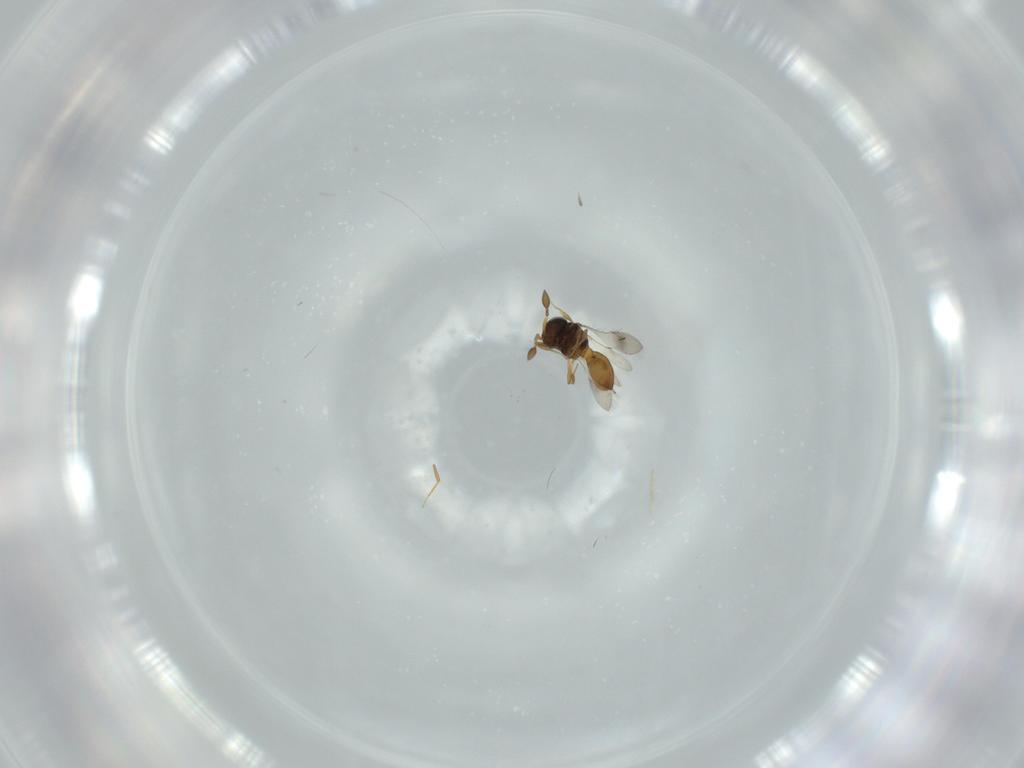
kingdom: Animalia
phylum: Arthropoda
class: Insecta
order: Hymenoptera
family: Scelionidae
